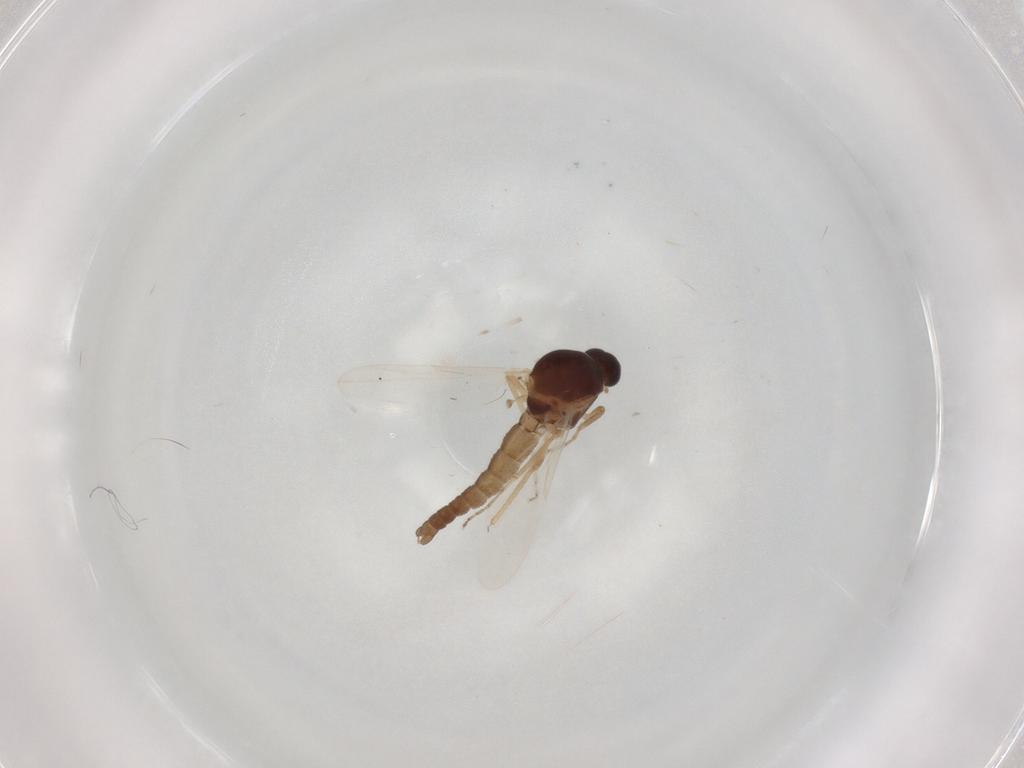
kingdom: Animalia
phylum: Arthropoda
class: Insecta
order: Diptera
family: Ceratopogonidae
